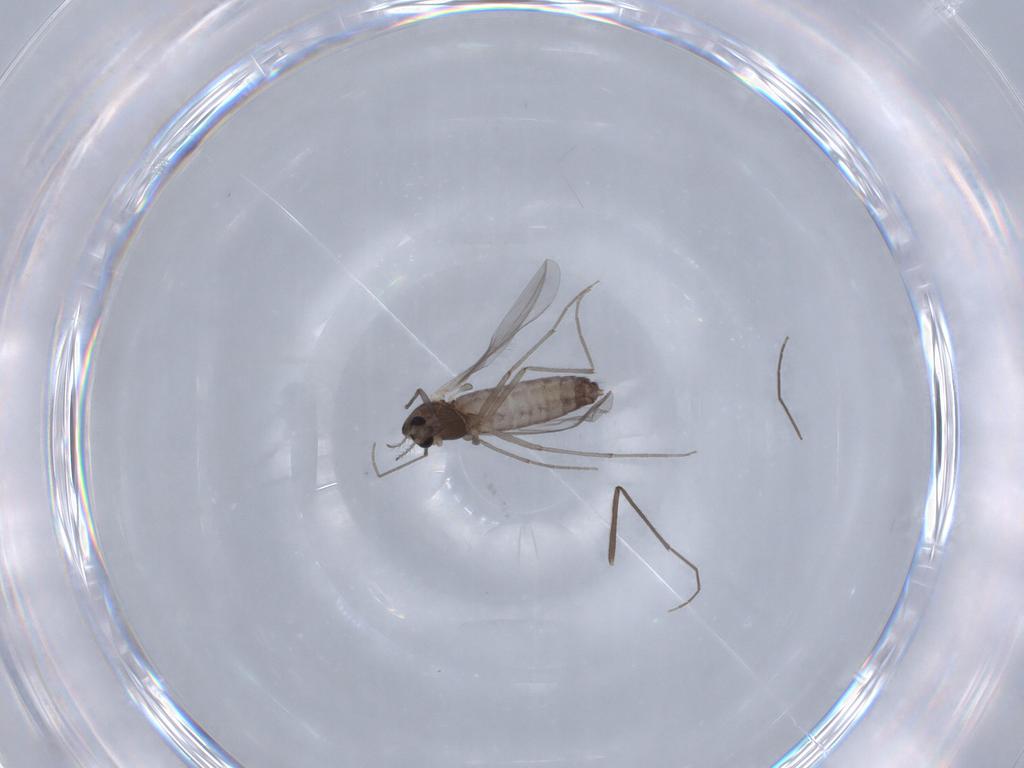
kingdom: Animalia
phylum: Arthropoda
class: Insecta
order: Diptera
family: Chironomidae
